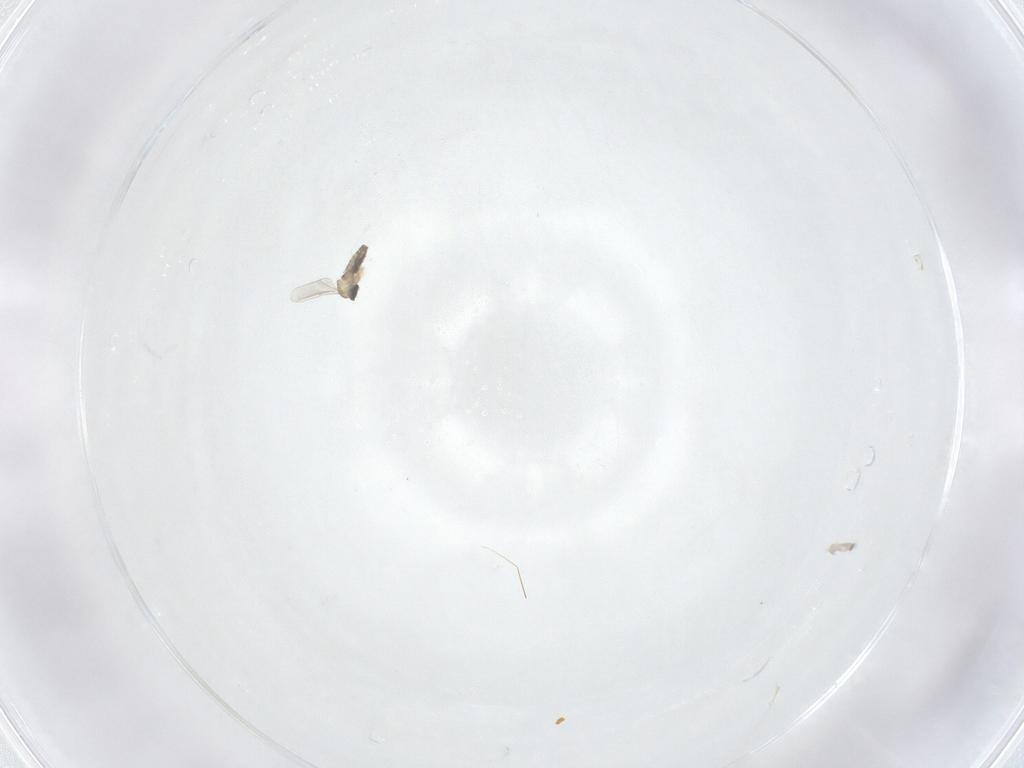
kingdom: Animalia
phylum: Arthropoda
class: Insecta
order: Diptera
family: Cecidomyiidae
